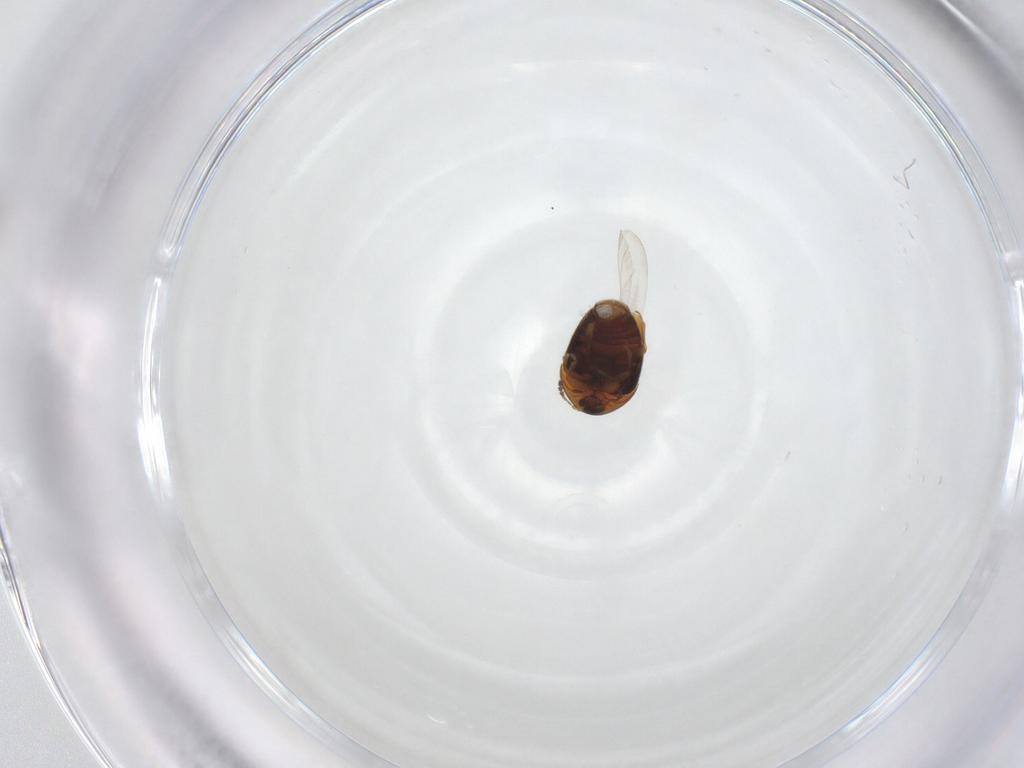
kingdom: Animalia
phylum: Arthropoda
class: Insecta
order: Coleoptera
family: Corylophidae
